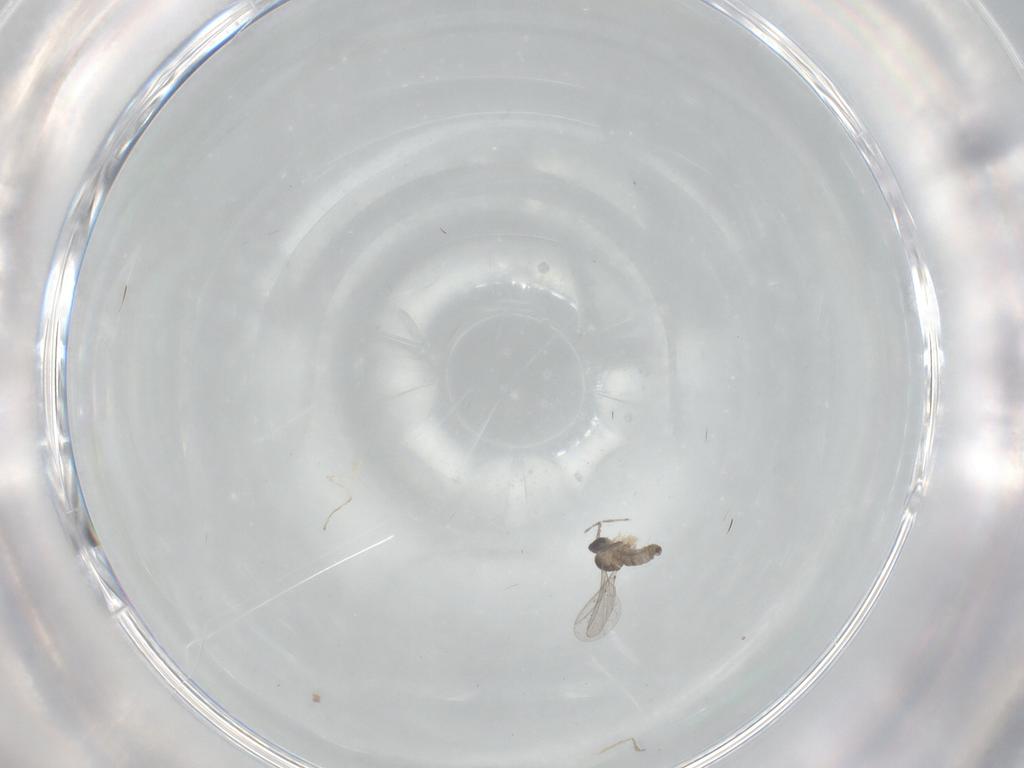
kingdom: Animalia
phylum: Arthropoda
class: Insecta
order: Diptera
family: Cecidomyiidae
